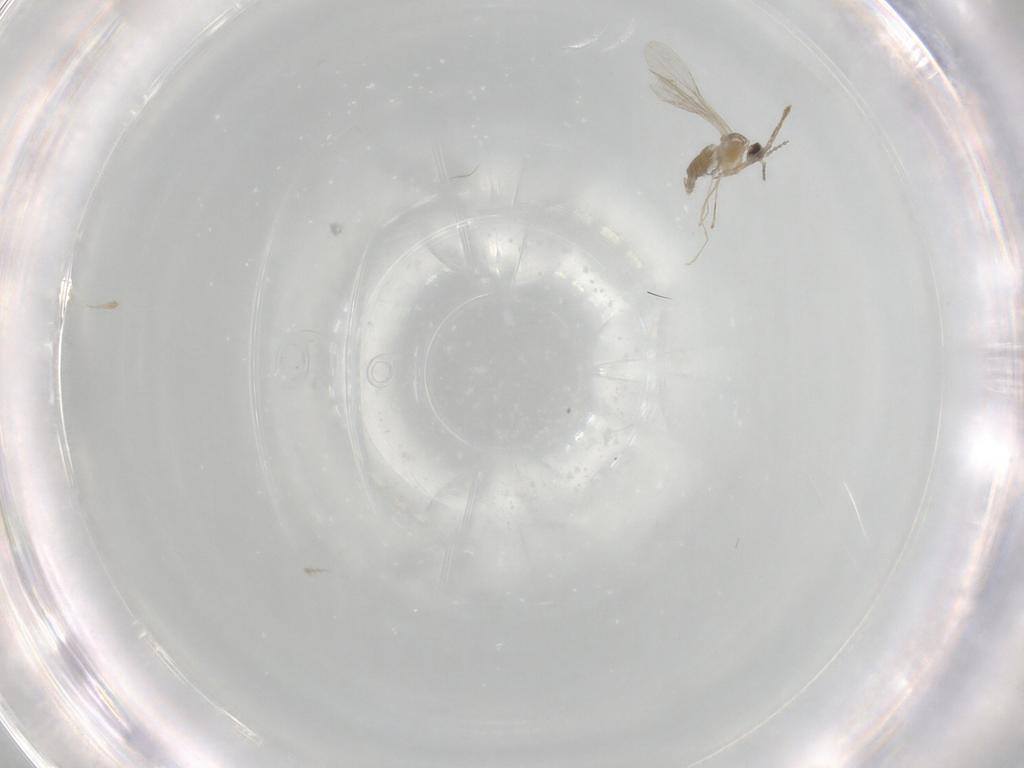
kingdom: Animalia
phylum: Arthropoda
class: Insecta
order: Diptera
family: Cecidomyiidae
